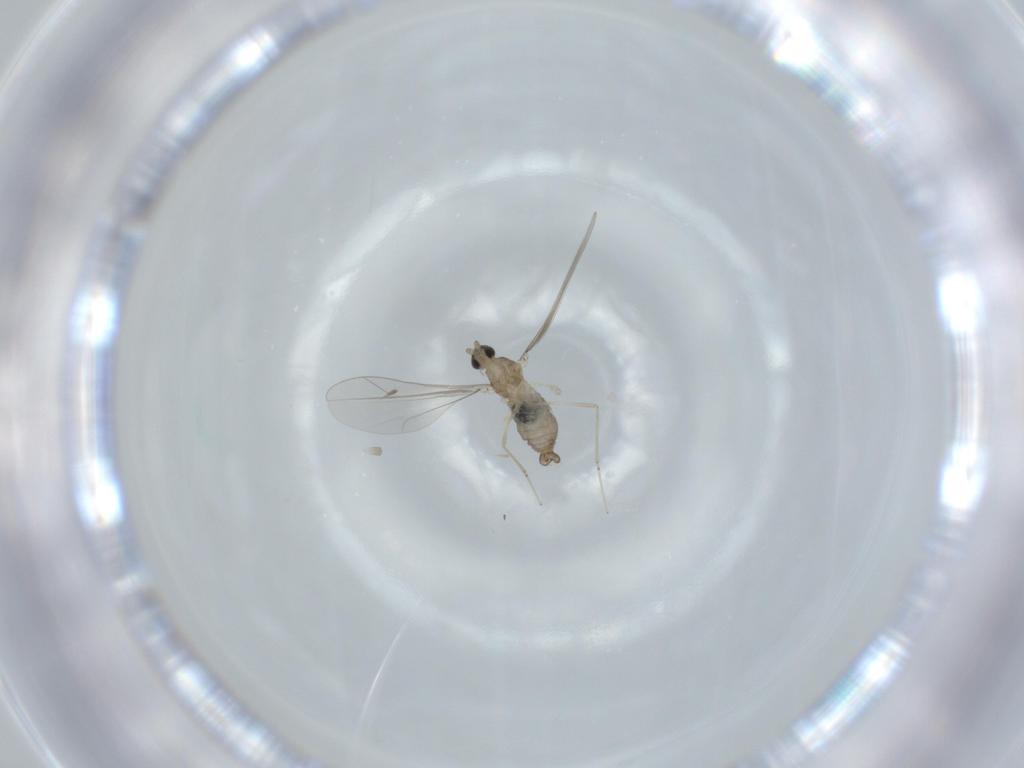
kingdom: Animalia
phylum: Arthropoda
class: Insecta
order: Diptera
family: Cecidomyiidae
